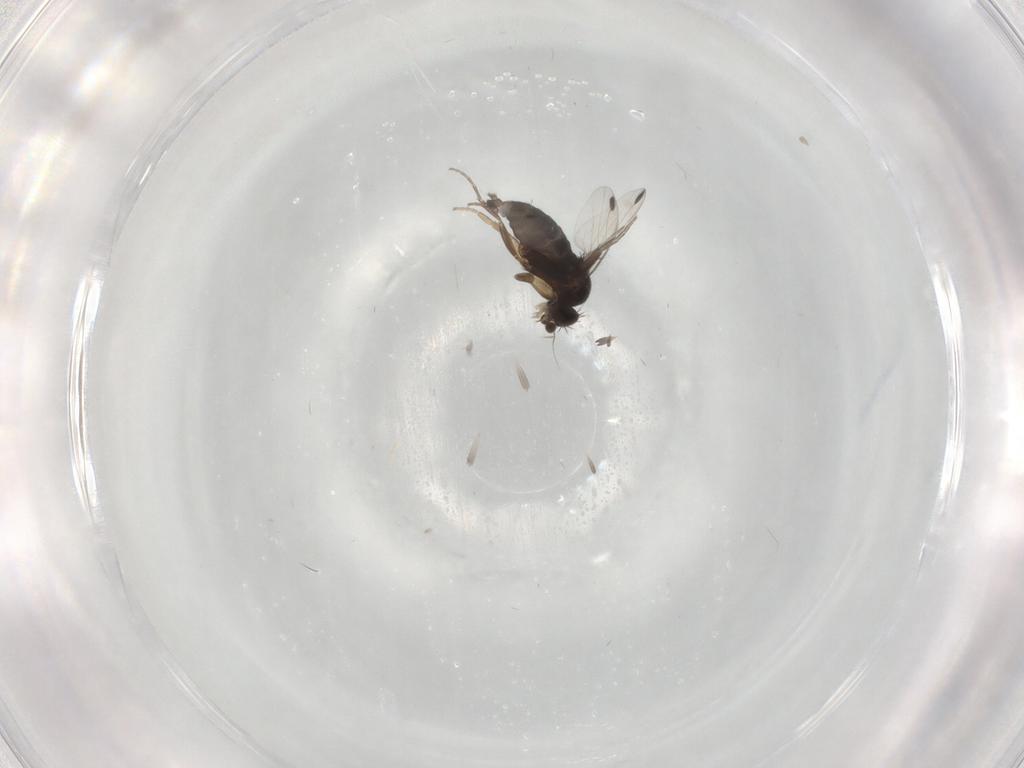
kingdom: Animalia
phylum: Arthropoda
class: Insecta
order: Diptera
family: Phoridae
